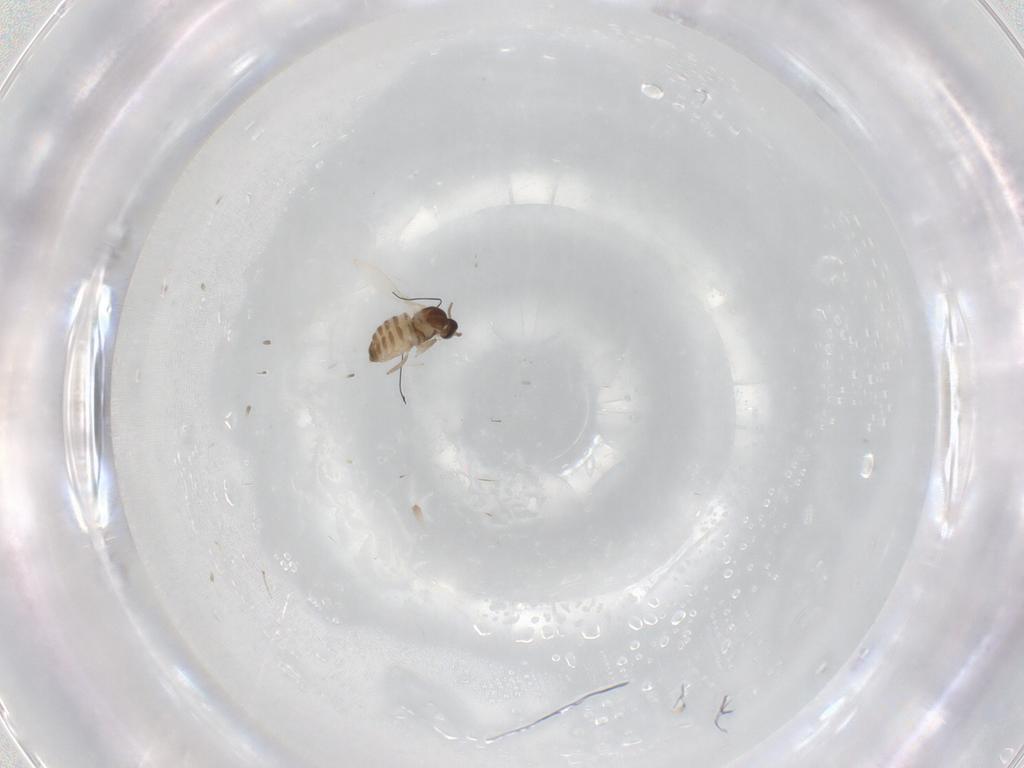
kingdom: Animalia
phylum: Arthropoda
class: Insecta
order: Diptera
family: Cecidomyiidae
